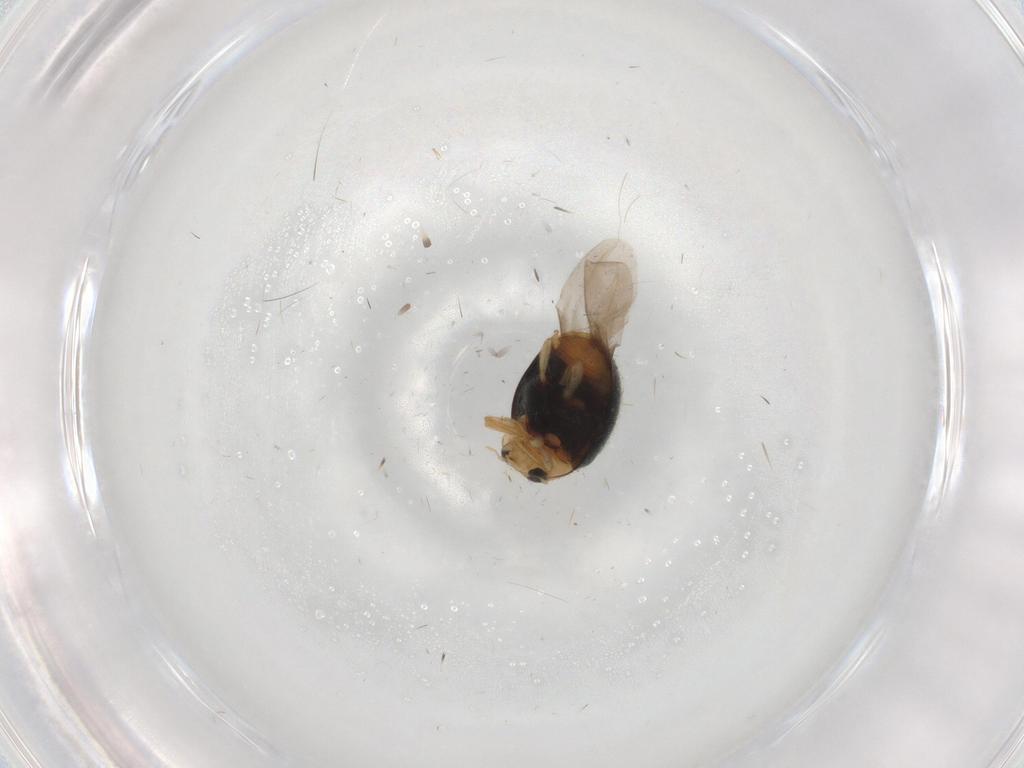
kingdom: Animalia
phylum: Arthropoda
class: Insecta
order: Coleoptera
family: Coccinellidae
